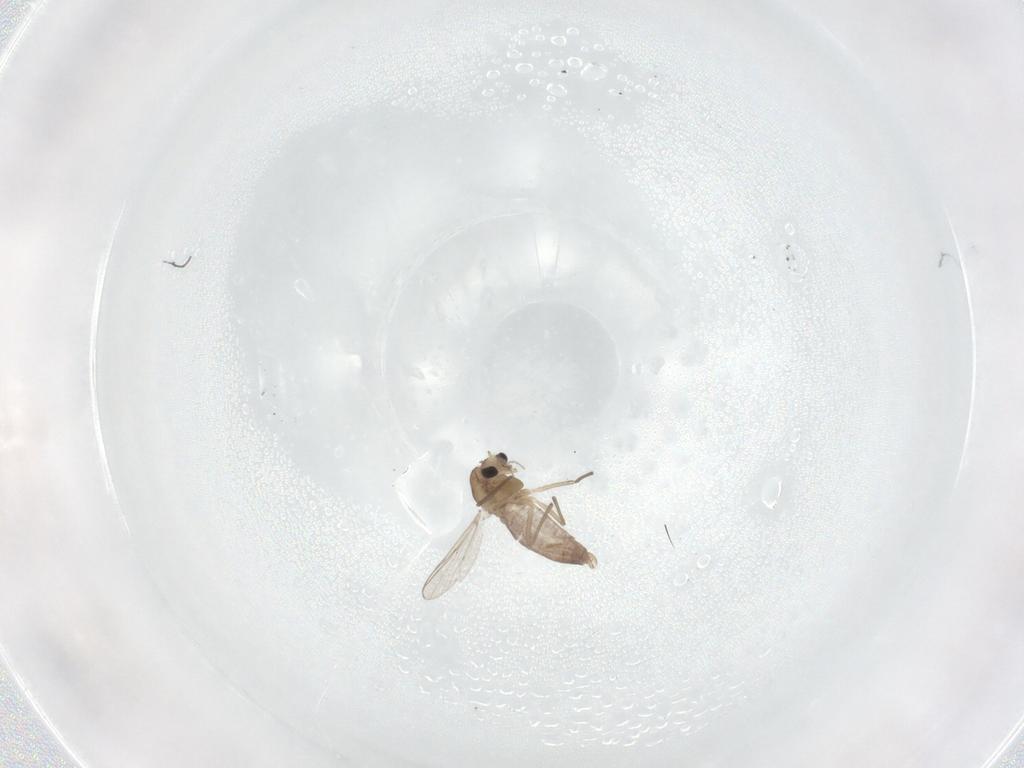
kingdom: Animalia
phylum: Arthropoda
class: Insecta
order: Diptera
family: Chironomidae
